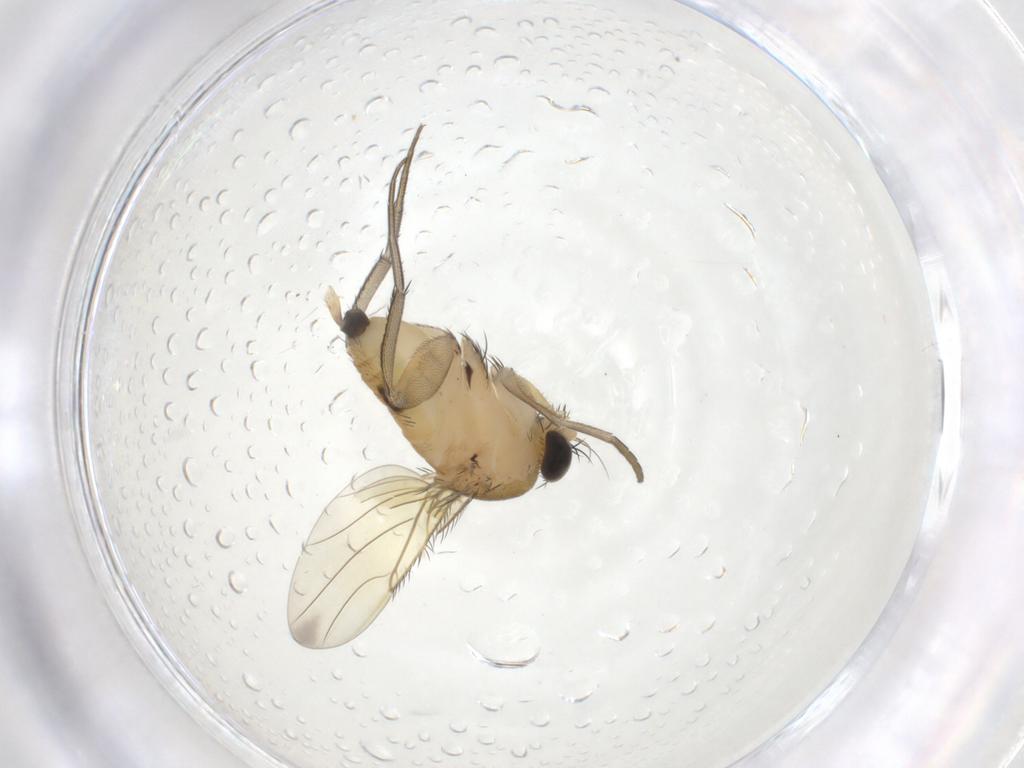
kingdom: Animalia
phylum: Arthropoda
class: Insecta
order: Diptera
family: Phoridae
